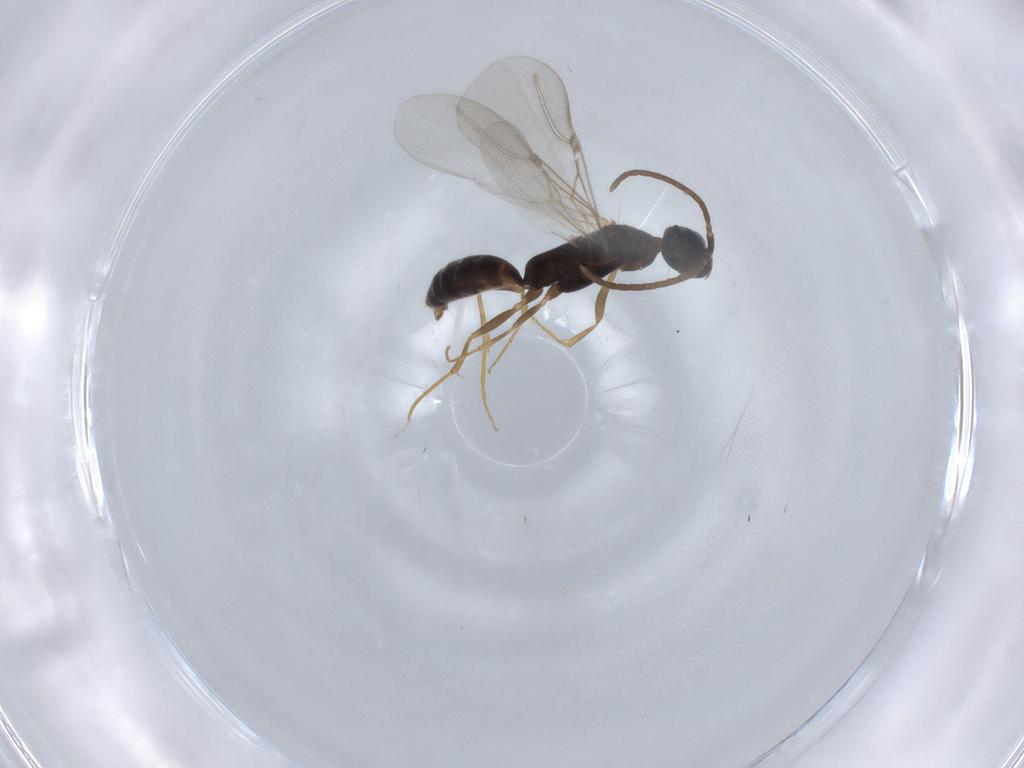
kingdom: Animalia
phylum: Arthropoda
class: Insecta
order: Hymenoptera
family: Bethylidae
